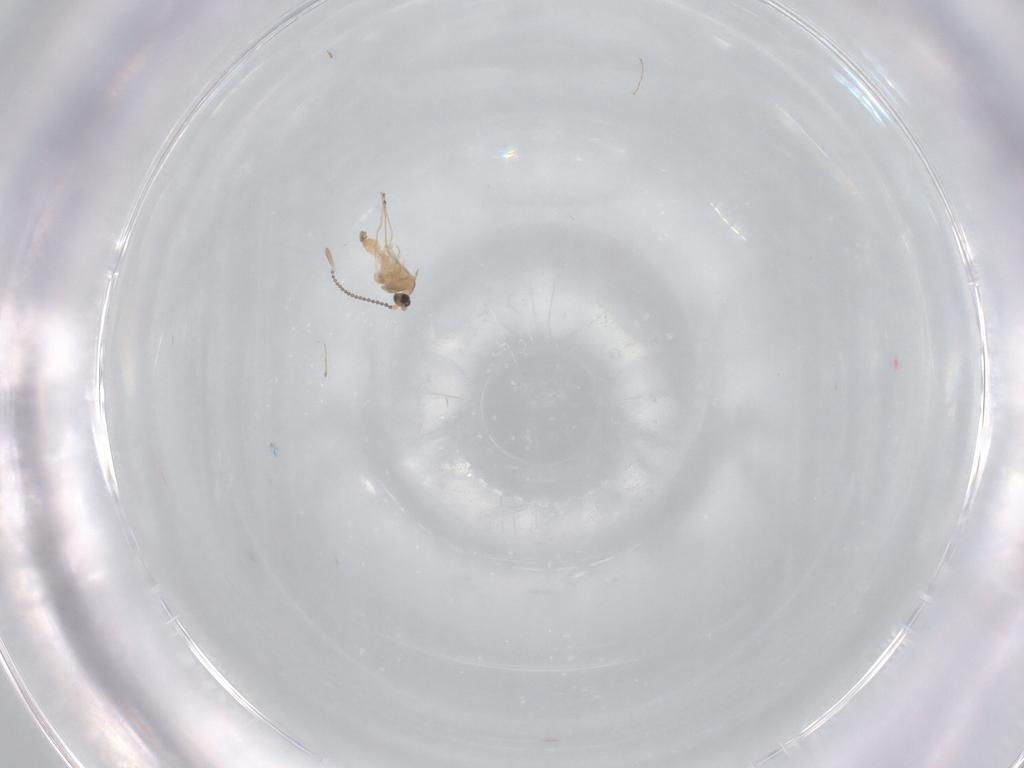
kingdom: Animalia
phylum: Arthropoda
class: Insecta
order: Diptera
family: Cecidomyiidae
